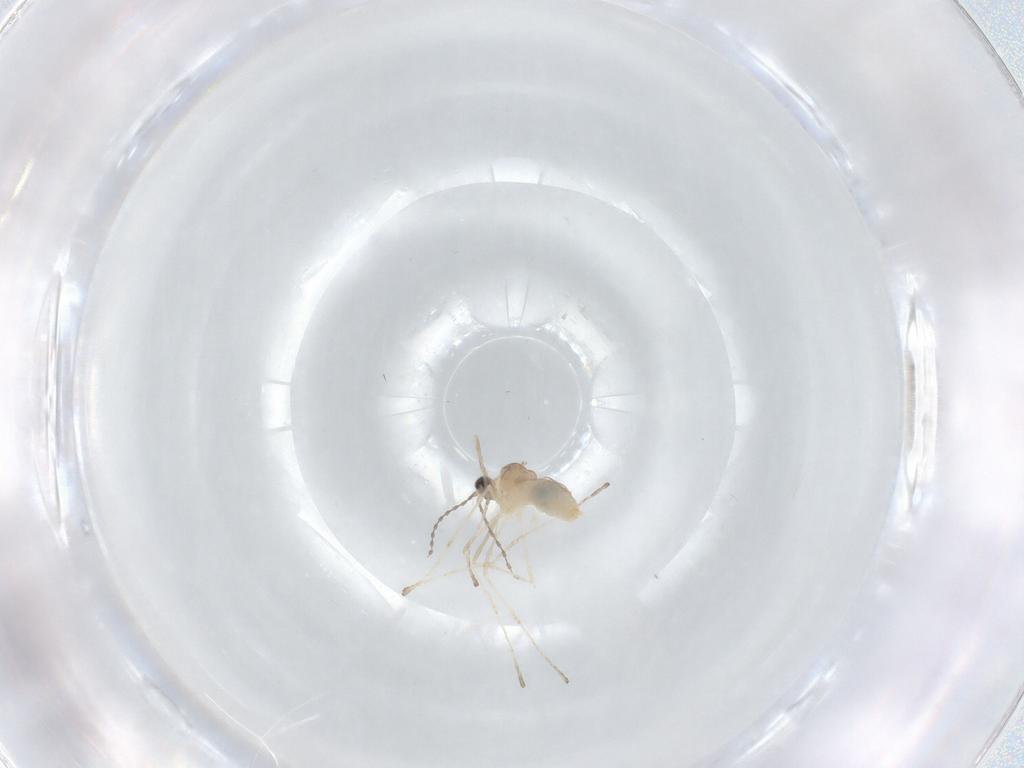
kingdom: Animalia
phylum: Arthropoda
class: Insecta
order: Diptera
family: Cecidomyiidae
